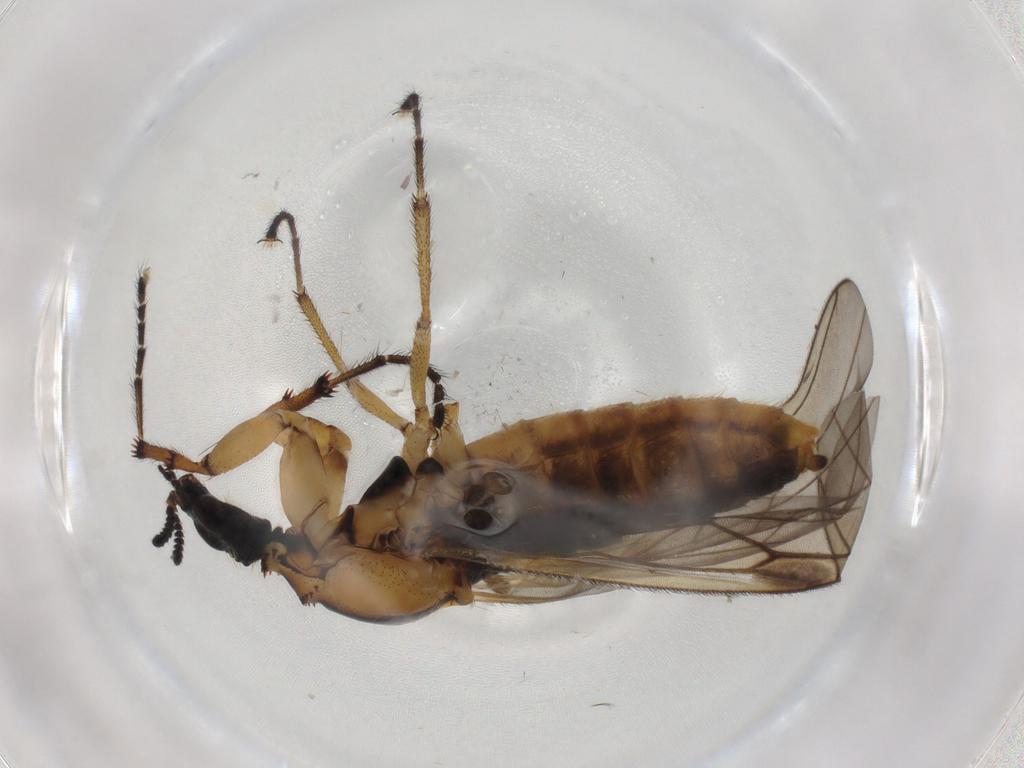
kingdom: Animalia
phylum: Arthropoda
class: Insecta
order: Diptera
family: Bibionidae
